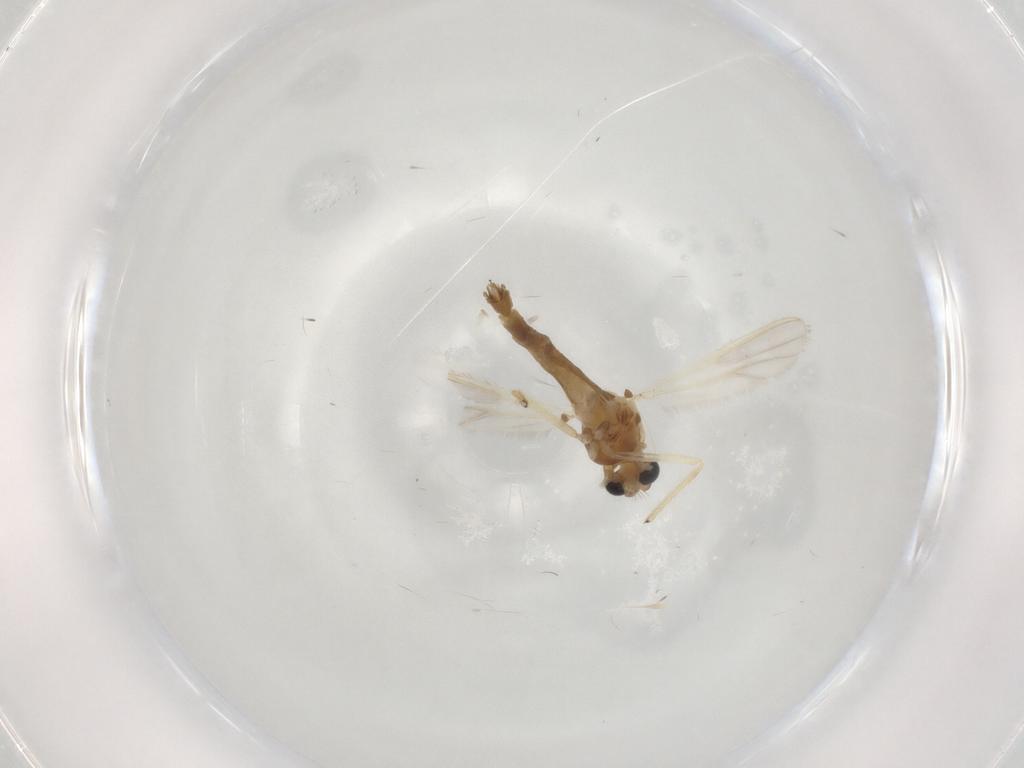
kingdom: Animalia
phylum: Arthropoda
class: Insecta
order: Diptera
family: Chironomidae
